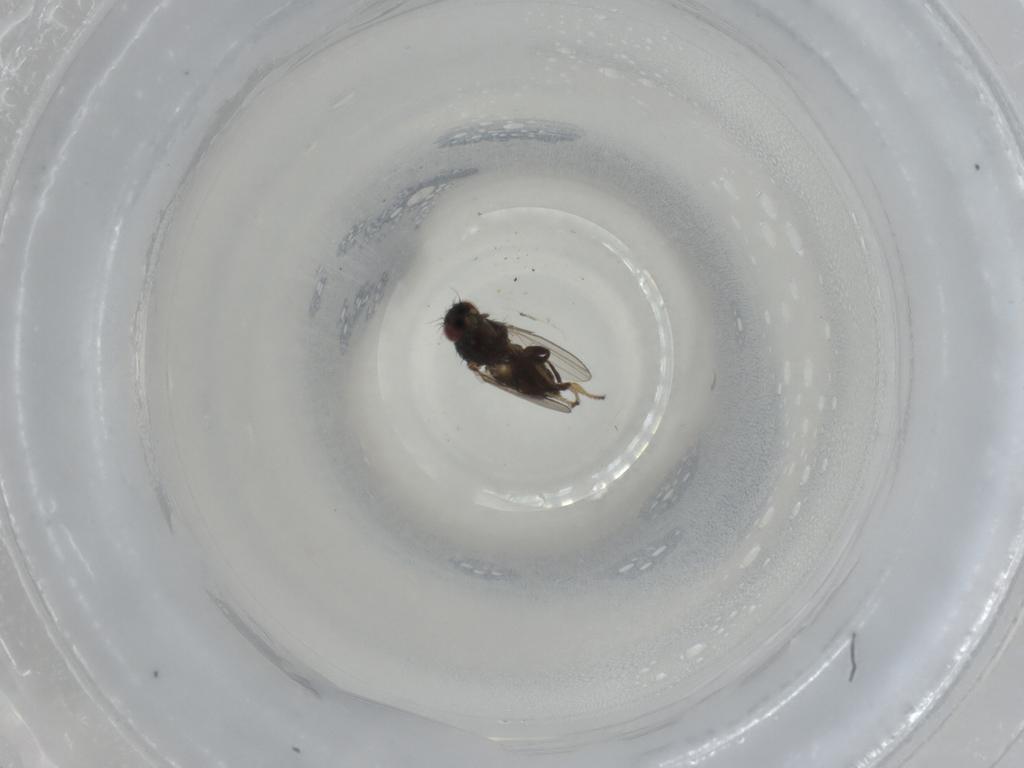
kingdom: Animalia
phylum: Arthropoda
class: Insecta
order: Diptera
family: Milichiidae
